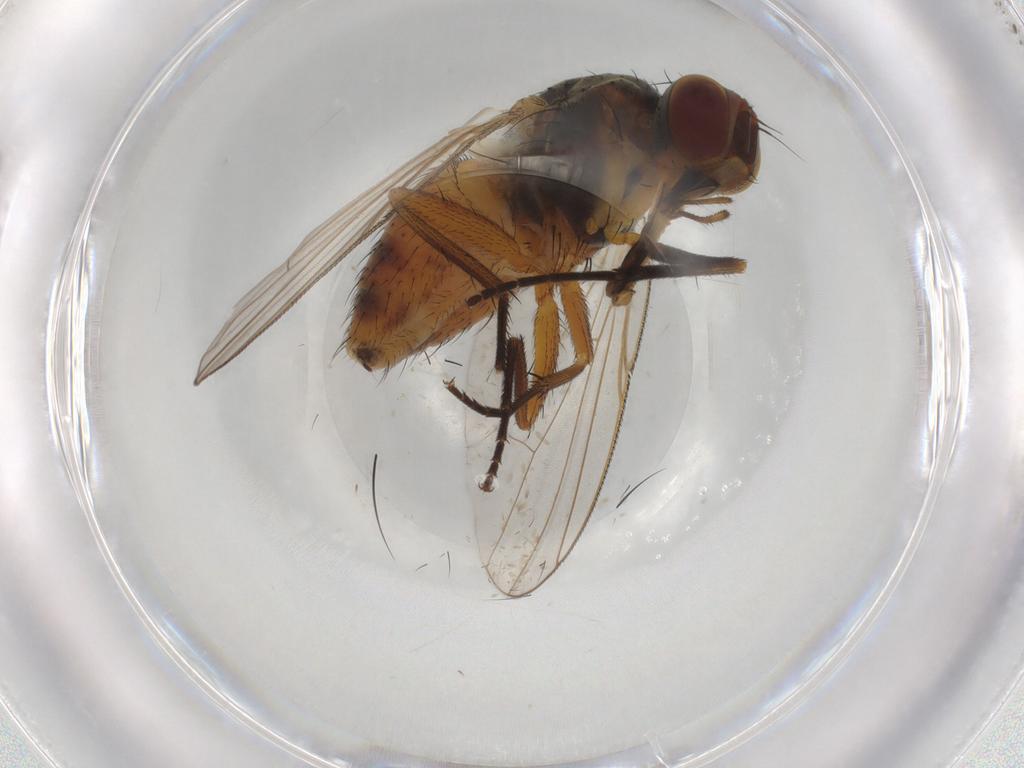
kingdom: Animalia
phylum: Arthropoda
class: Insecta
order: Diptera
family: Muscidae
